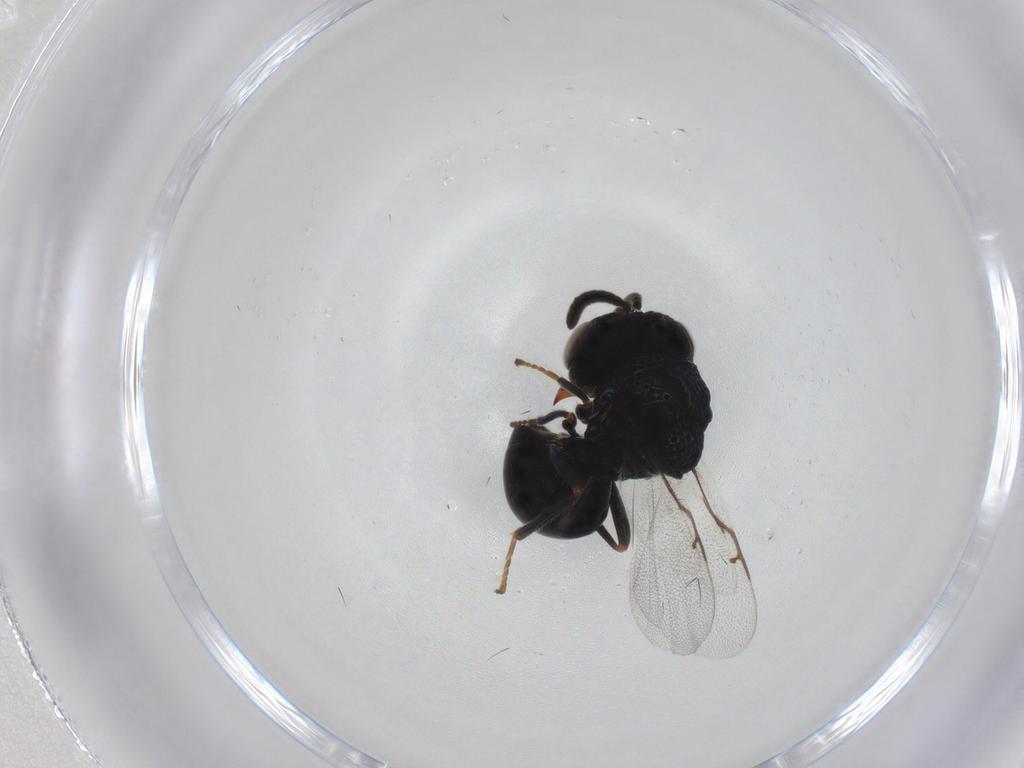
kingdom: Animalia
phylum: Arthropoda
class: Insecta
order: Hymenoptera
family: Perilampidae
